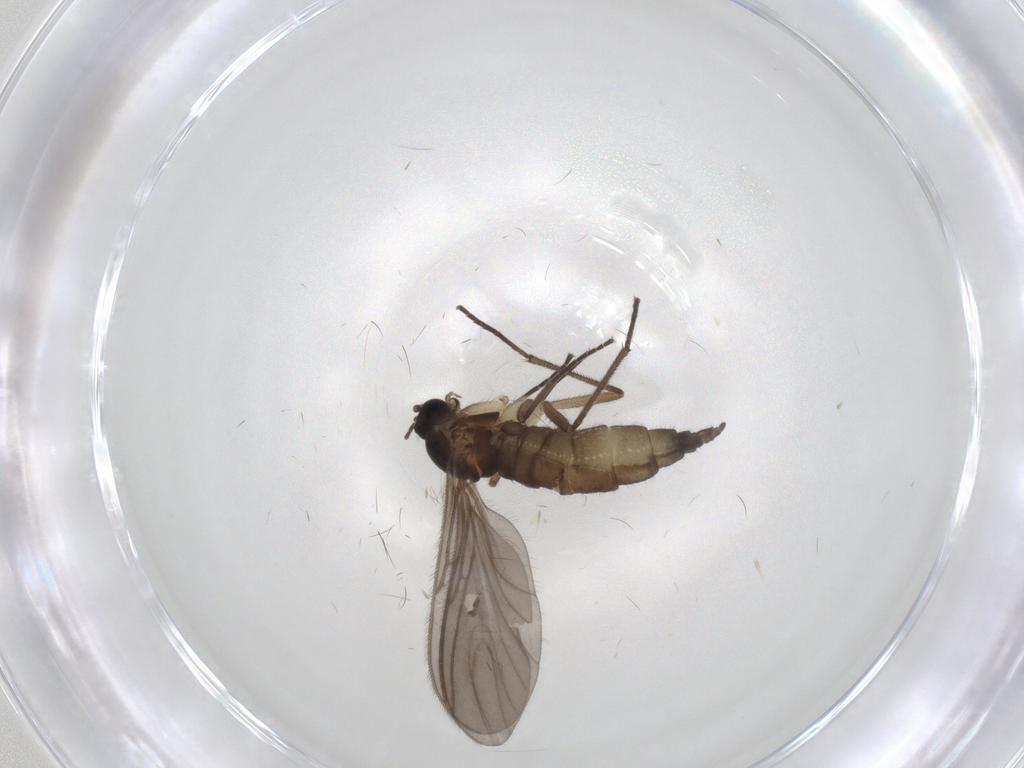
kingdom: Animalia
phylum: Arthropoda
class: Insecta
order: Diptera
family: Sciaridae
